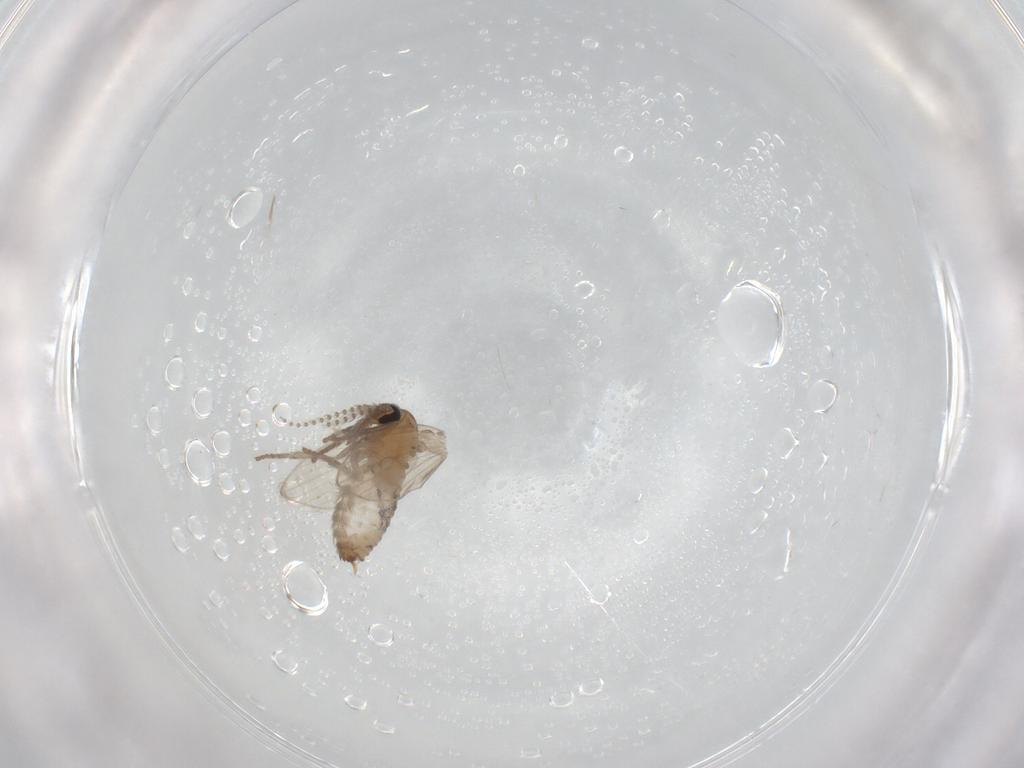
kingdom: Animalia
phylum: Arthropoda
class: Insecta
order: Diptera
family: Psychodidae
